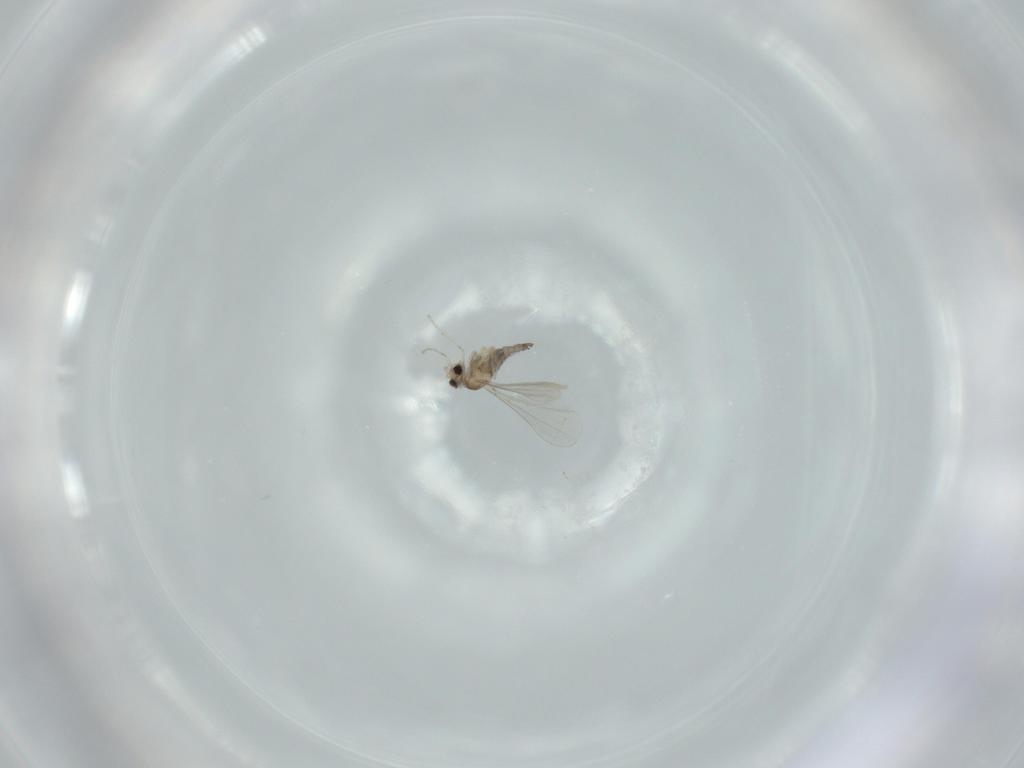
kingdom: Animalia
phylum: Arthropoda
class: Insecta
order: Diptera
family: Cecidomyiidae
